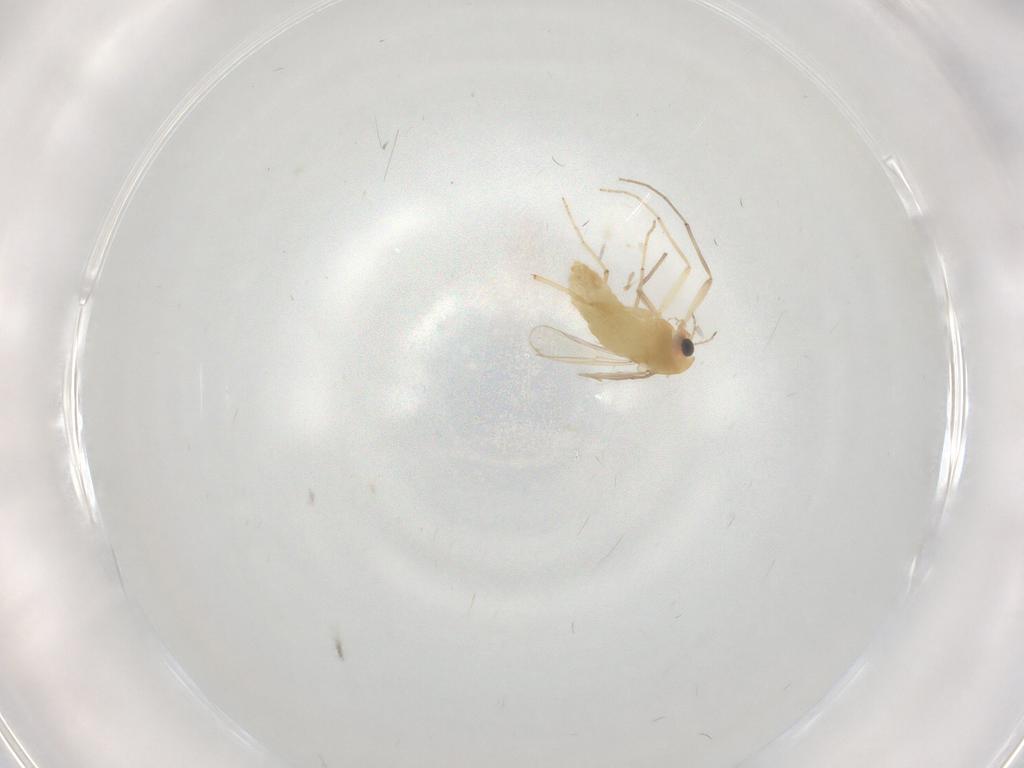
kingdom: Animalia
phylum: Arthropoda
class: Insecta
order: Diptera
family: Chironomidae
